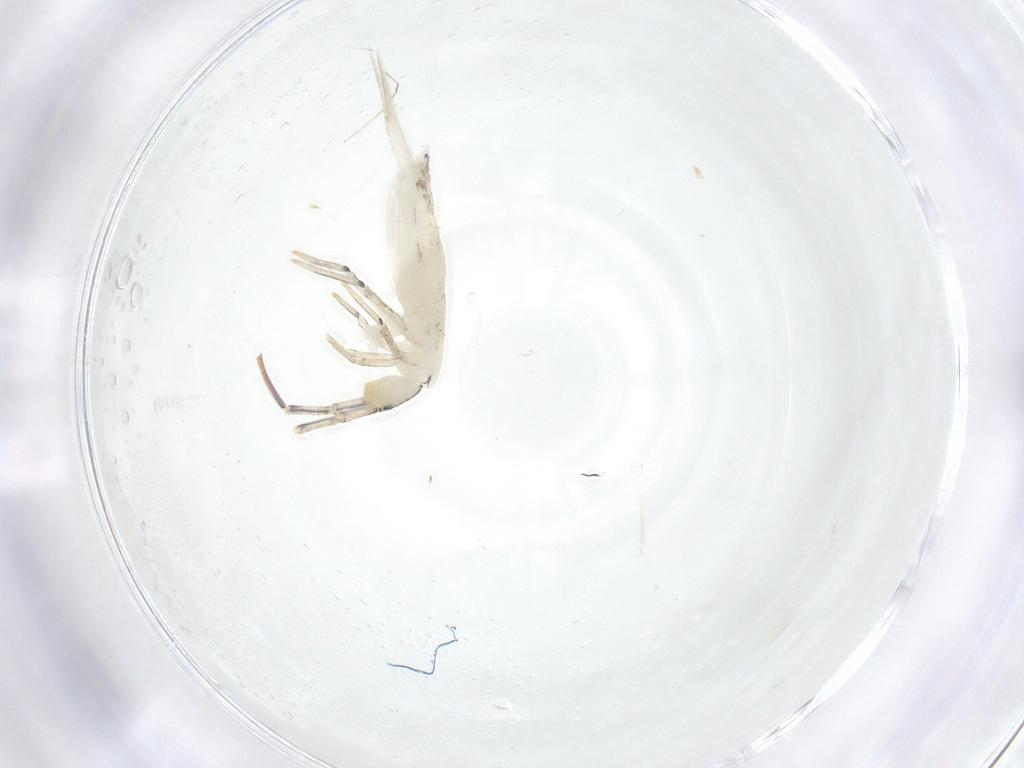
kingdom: Animalia
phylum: Arthropoda
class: Collembola
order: Entomobryomorpha
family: Entomobryidae
